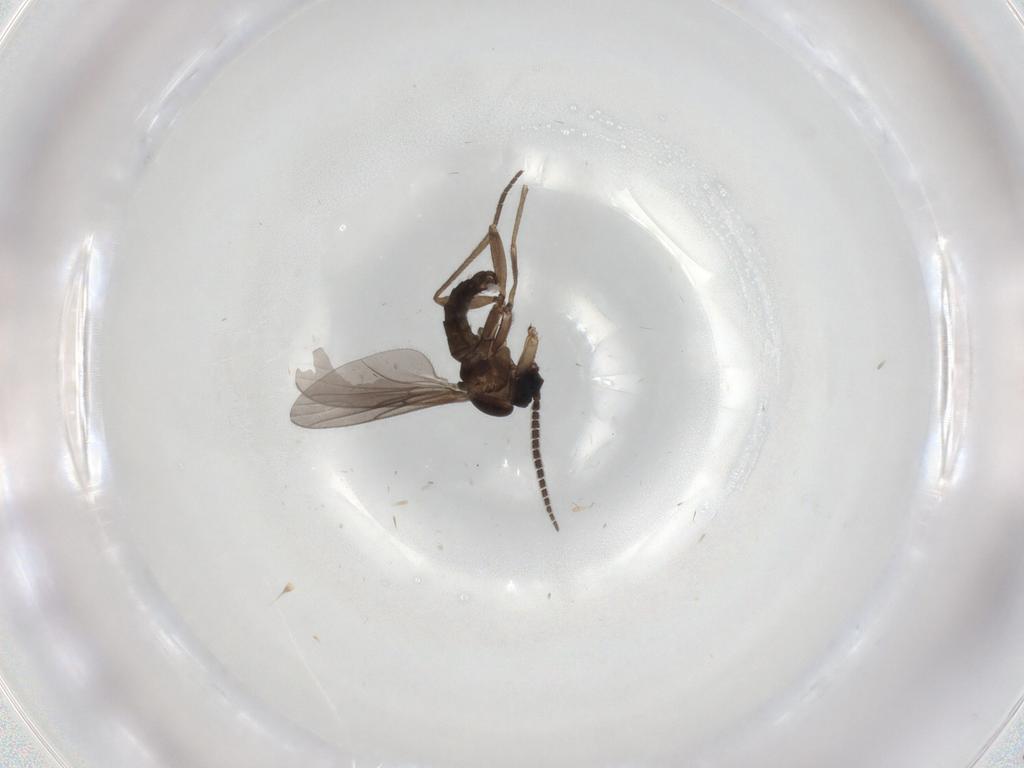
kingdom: Animalia
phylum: Arthropoda
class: Insecta
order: Diptera
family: Sciaridae
